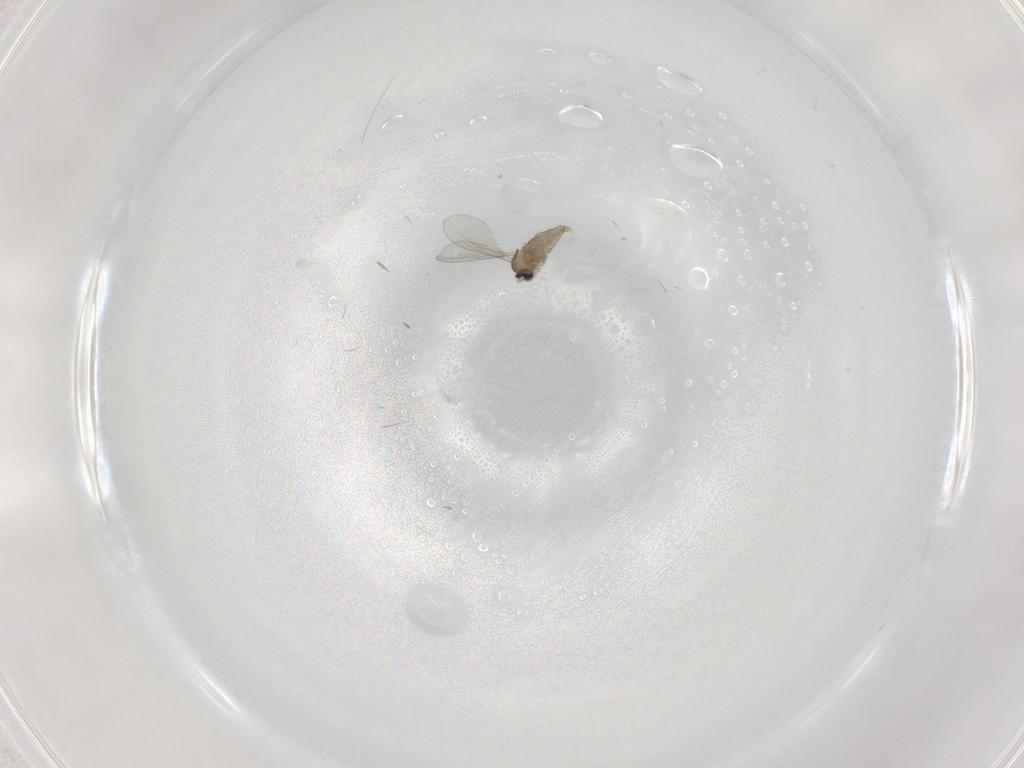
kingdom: Animalia
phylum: Arthropoda
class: Insecta
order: Diptera
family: Cecidomyiidae
